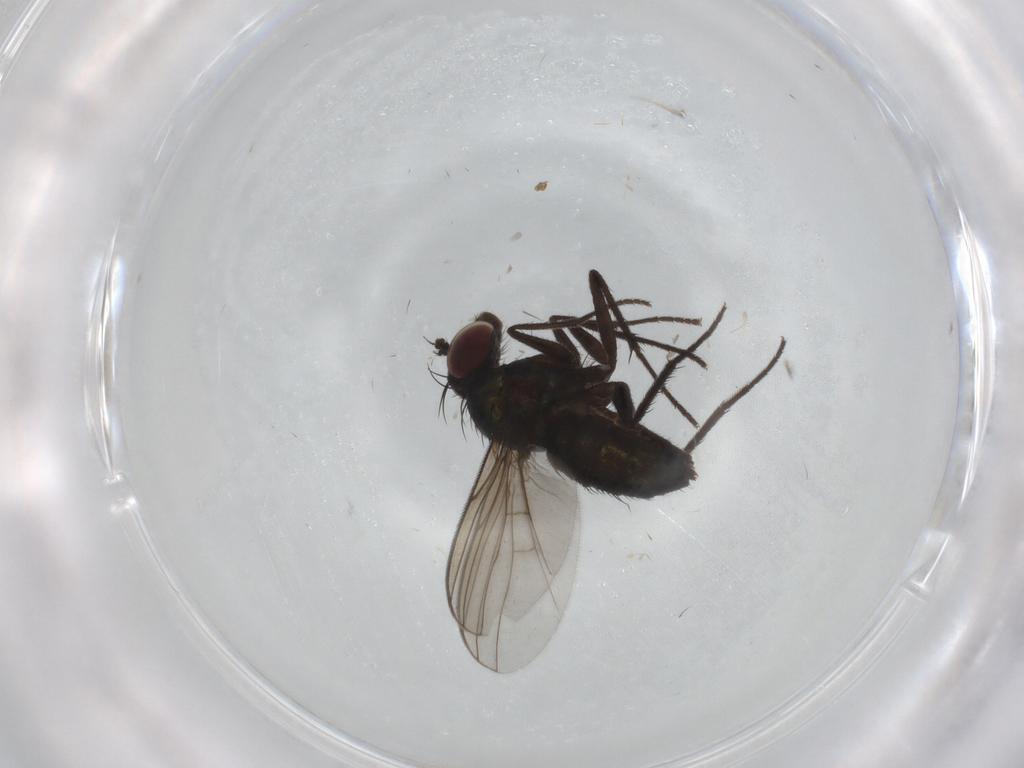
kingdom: Animalia
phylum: Arthropoda
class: Insecta
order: Diptera
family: Dolichopodidae
